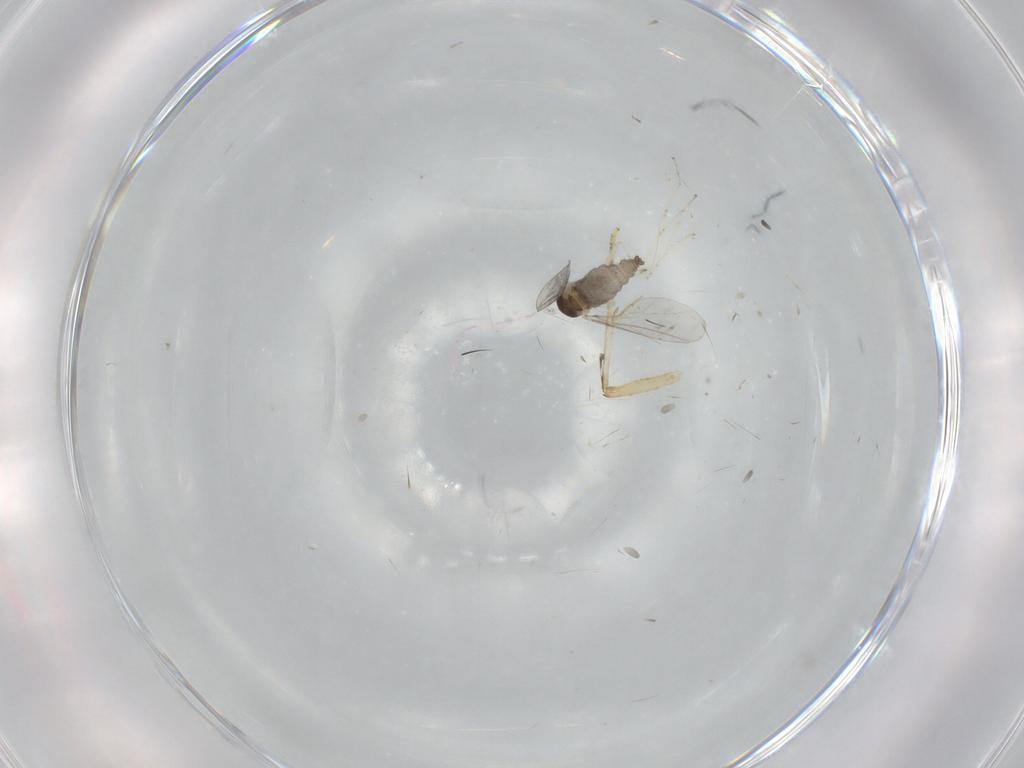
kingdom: Animalia
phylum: Arthropoda
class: Insecta
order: Diptera
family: Cecidomyiidae
